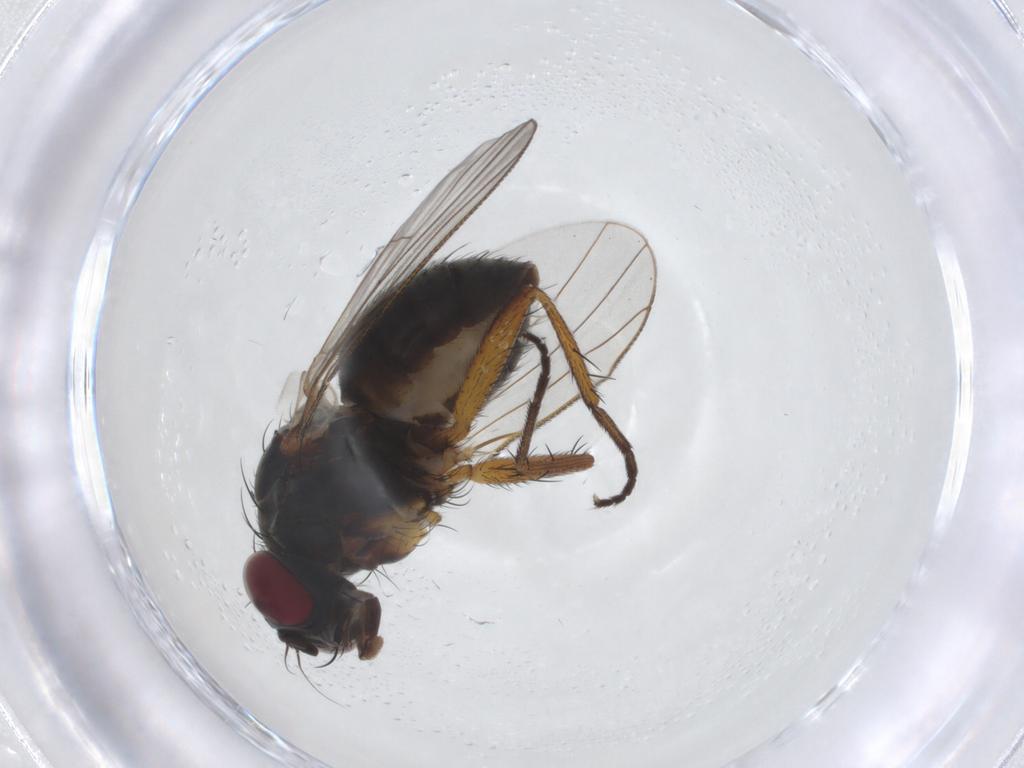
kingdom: Animalia
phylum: Arthropoda
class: Insecta
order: Diptera
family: Muscidae
